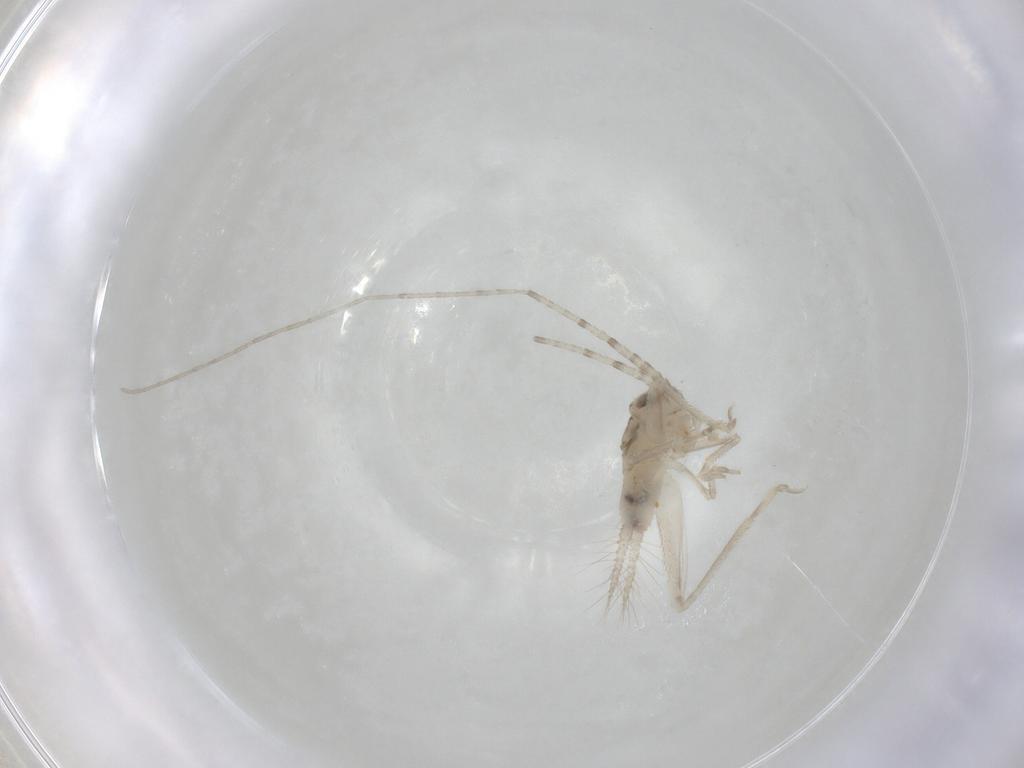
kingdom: Animalia
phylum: Arthropoda
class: Insecta
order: Orthoptera
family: Trigonidiidae
